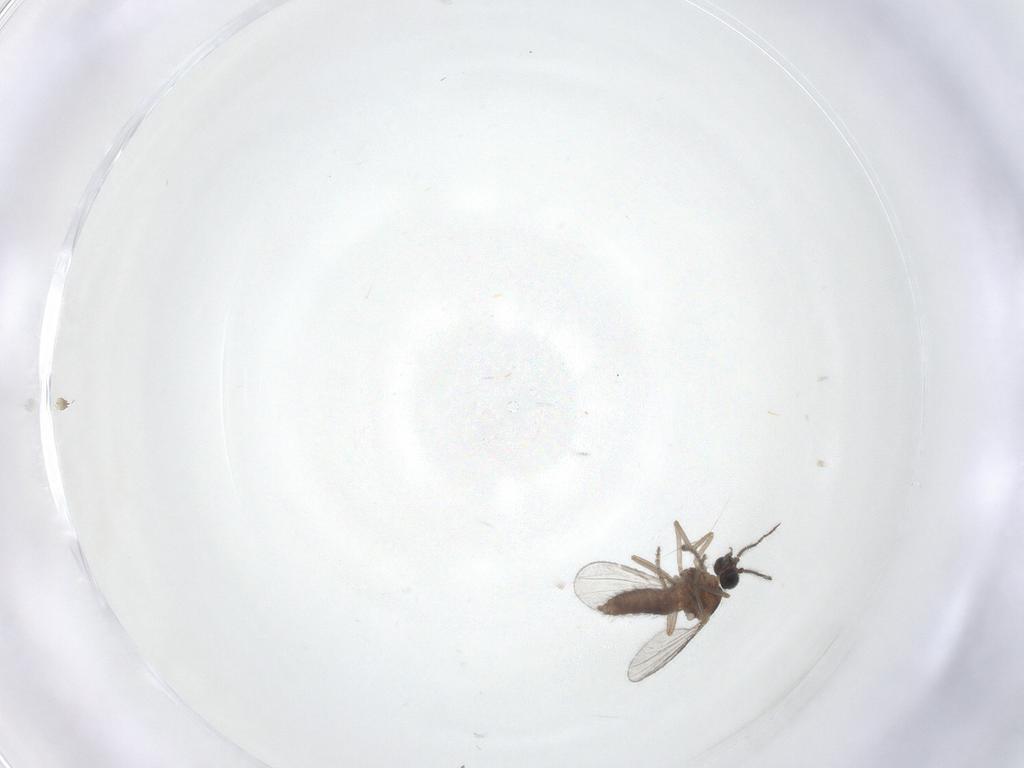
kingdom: Animalia
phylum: Arthropoda
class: Insecta
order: Diptera
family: Ceratopogonidae
